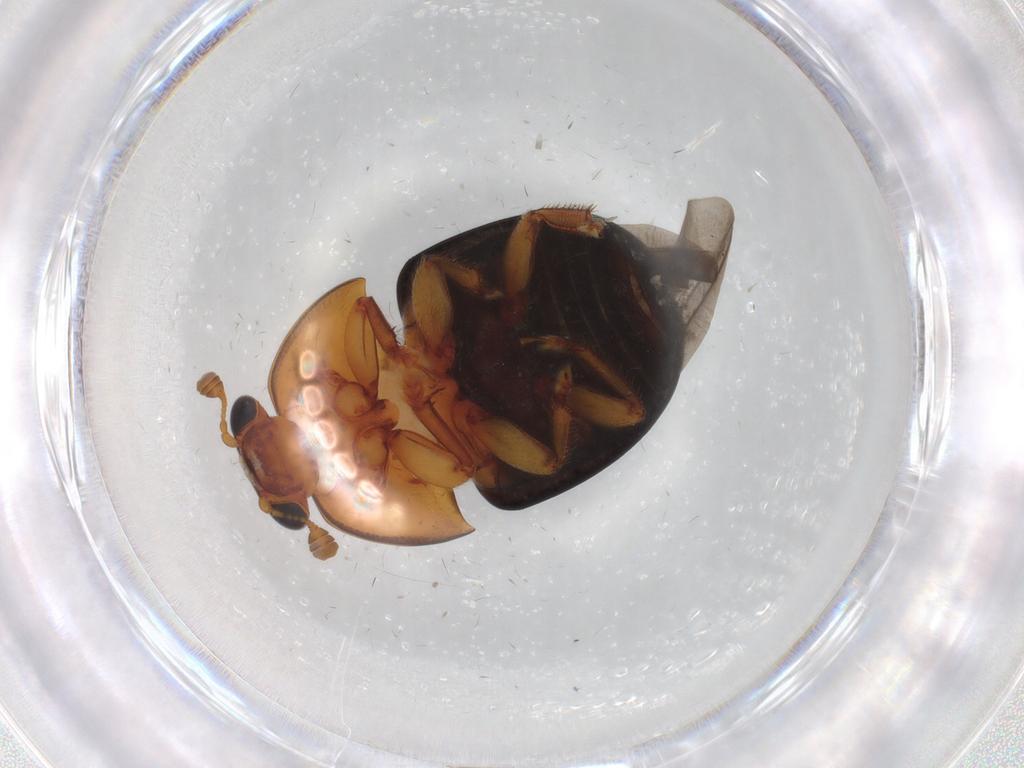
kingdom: Animalia
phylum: Arthropoda
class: Insecta
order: Coleoptera
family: Nitidulidae
